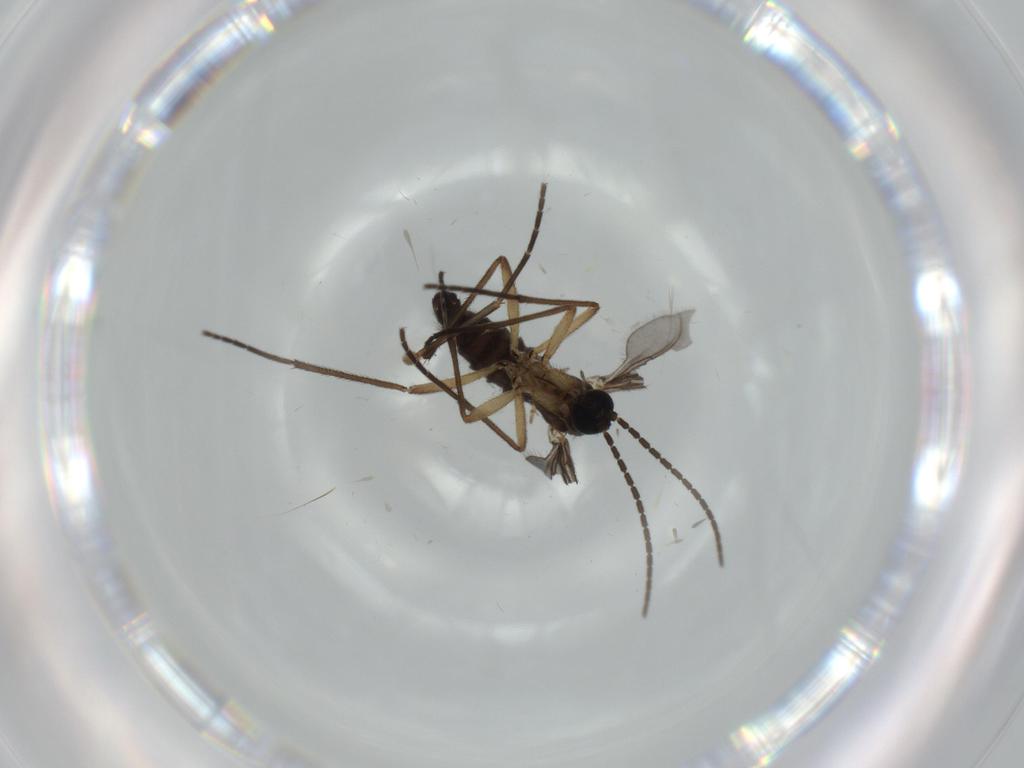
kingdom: Animalia
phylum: Arthropoda
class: Insecta
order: Diptera
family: Sciaridae
